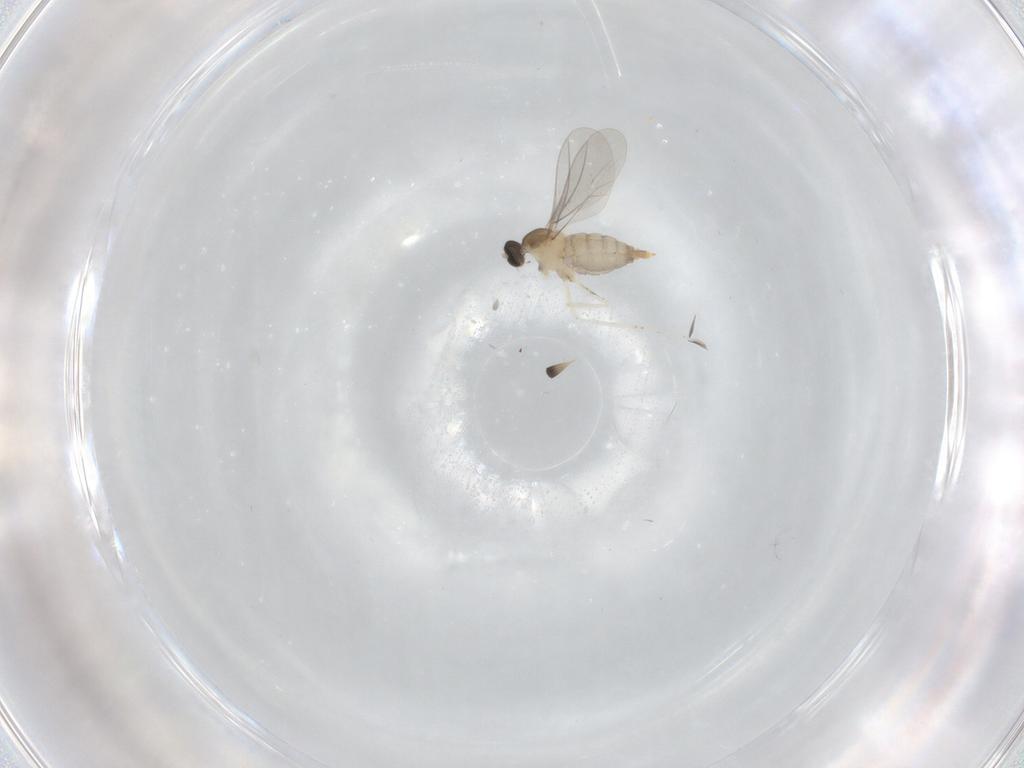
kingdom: Animalia
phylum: Arthropoda
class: Insecta
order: Diptera
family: Cecidomyiidae
